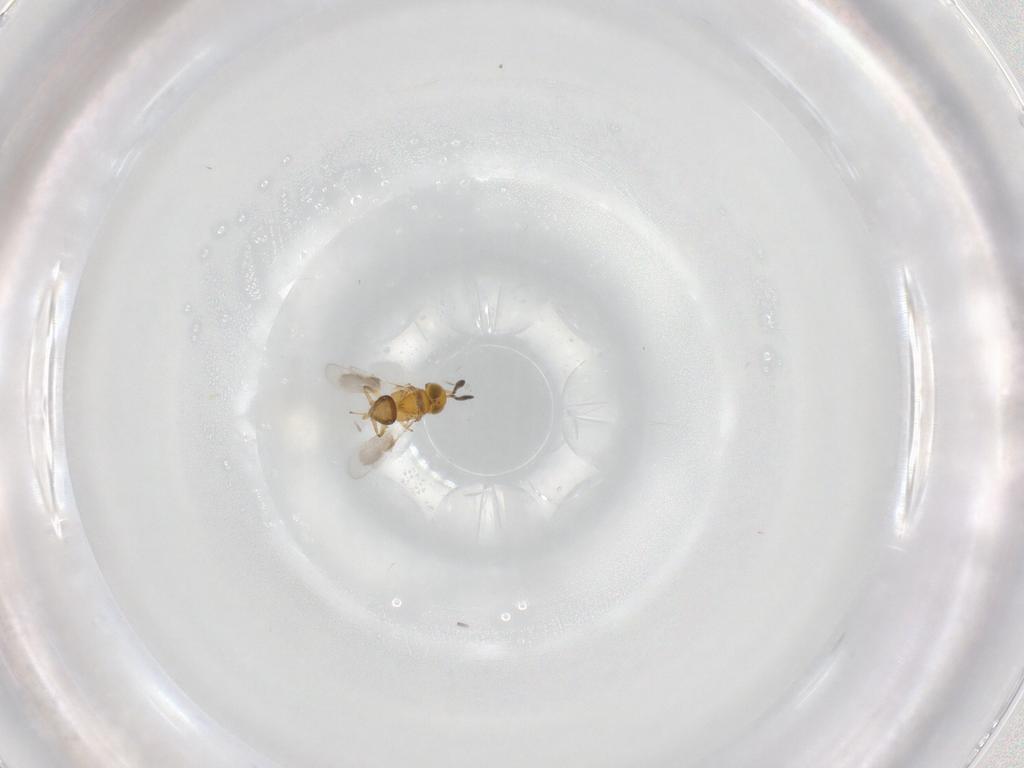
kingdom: Animalia
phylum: Arthropoda
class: Insecta
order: Hymenoptera
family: Encyrtidae
